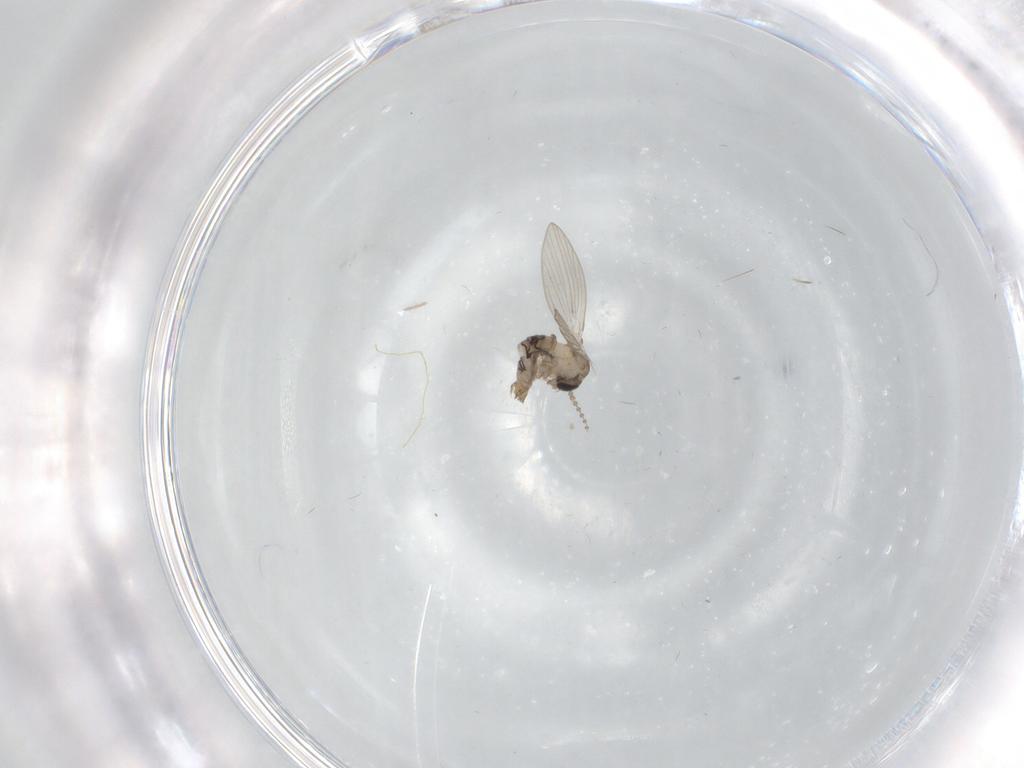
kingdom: Animalia
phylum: Arthropoda
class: Insecta
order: Diptera
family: Psychodidae
